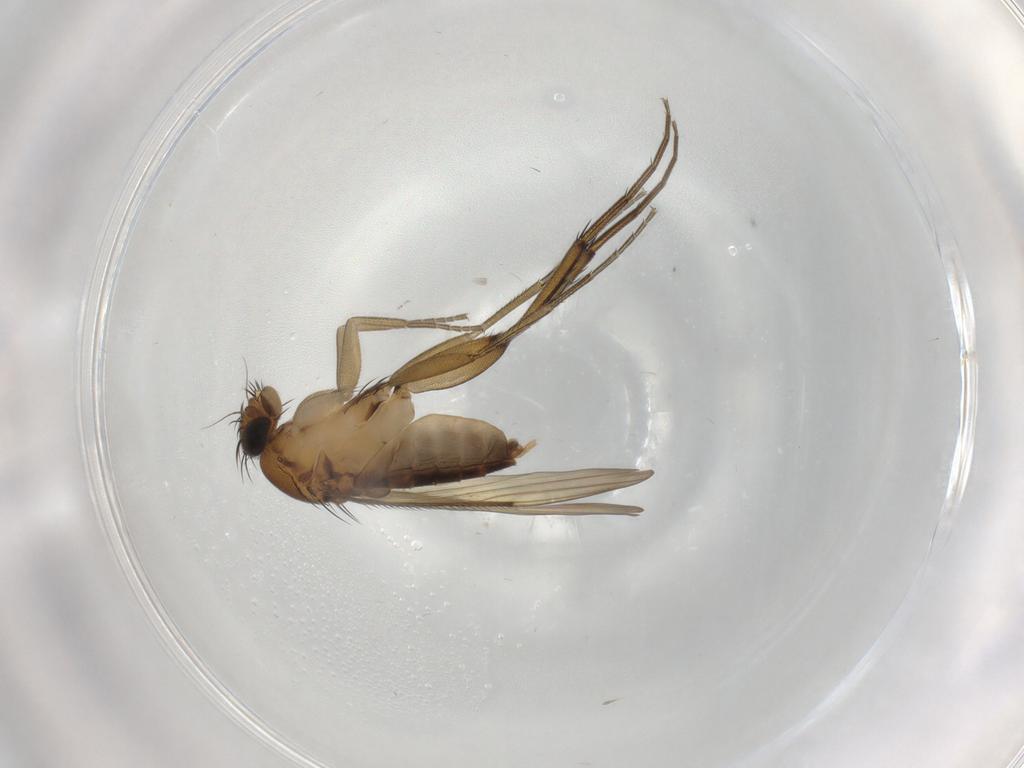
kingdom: Animalia
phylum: Arthropoda
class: Insecta
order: Diptera
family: Phoridae
